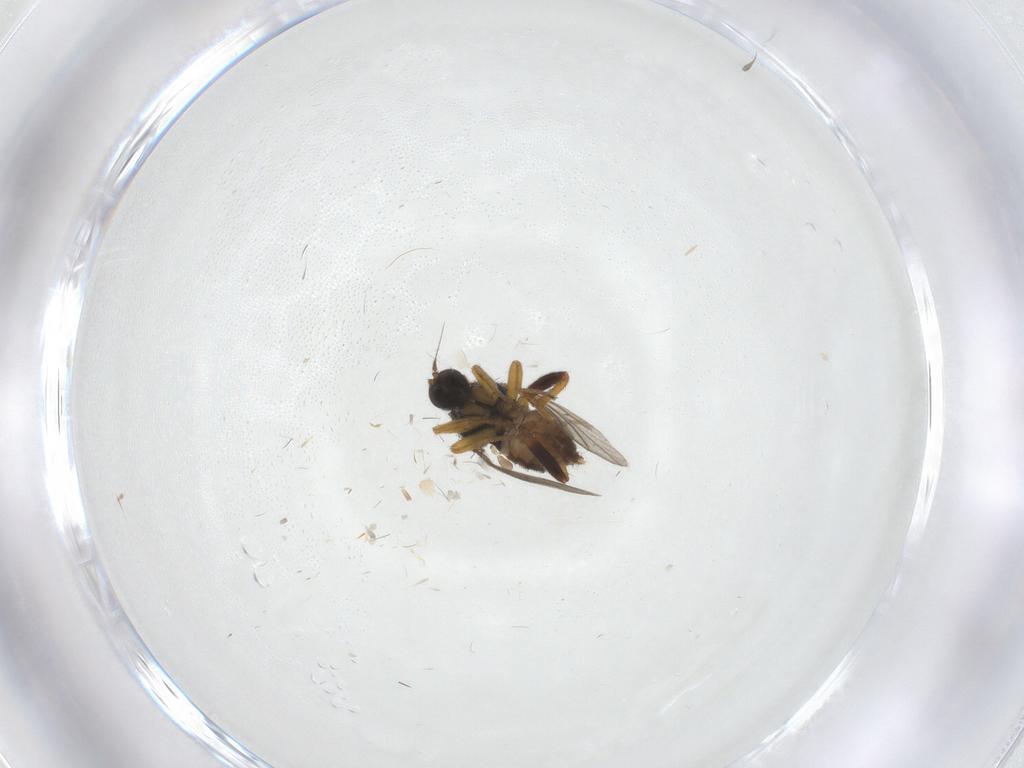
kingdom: Animalia
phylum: Arthropoda
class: Insecta
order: Diptera
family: Hybotidae
